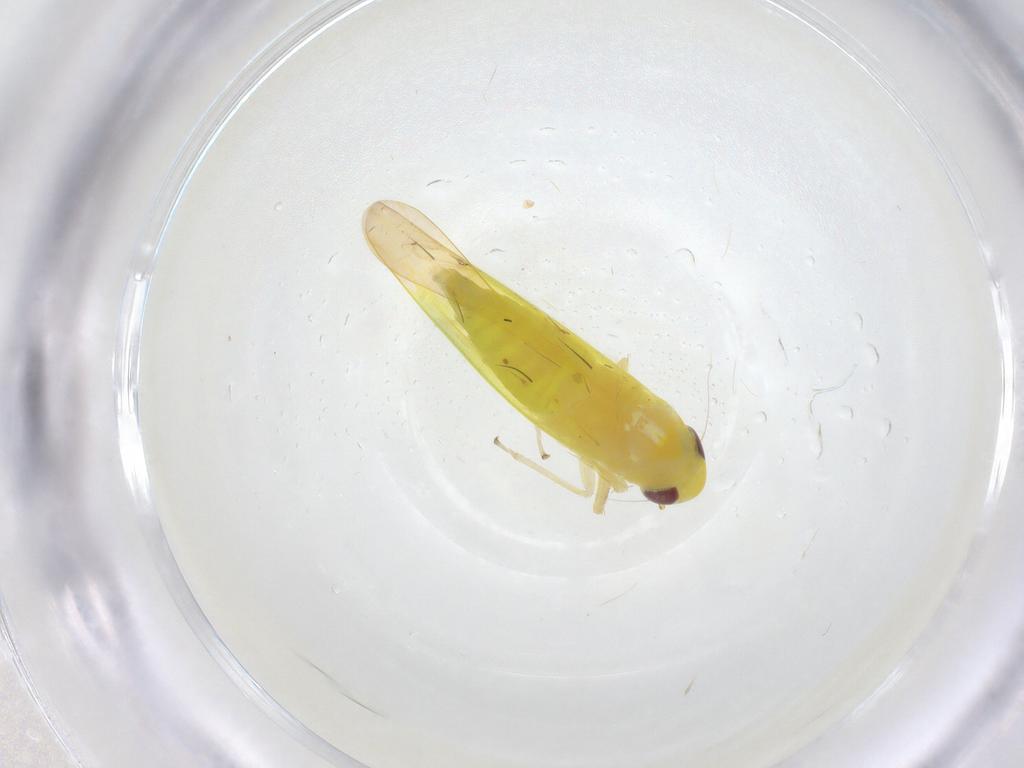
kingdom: Animalia
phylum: Arthropoda
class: Insecta
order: Hemiptera
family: Cicadellidae
